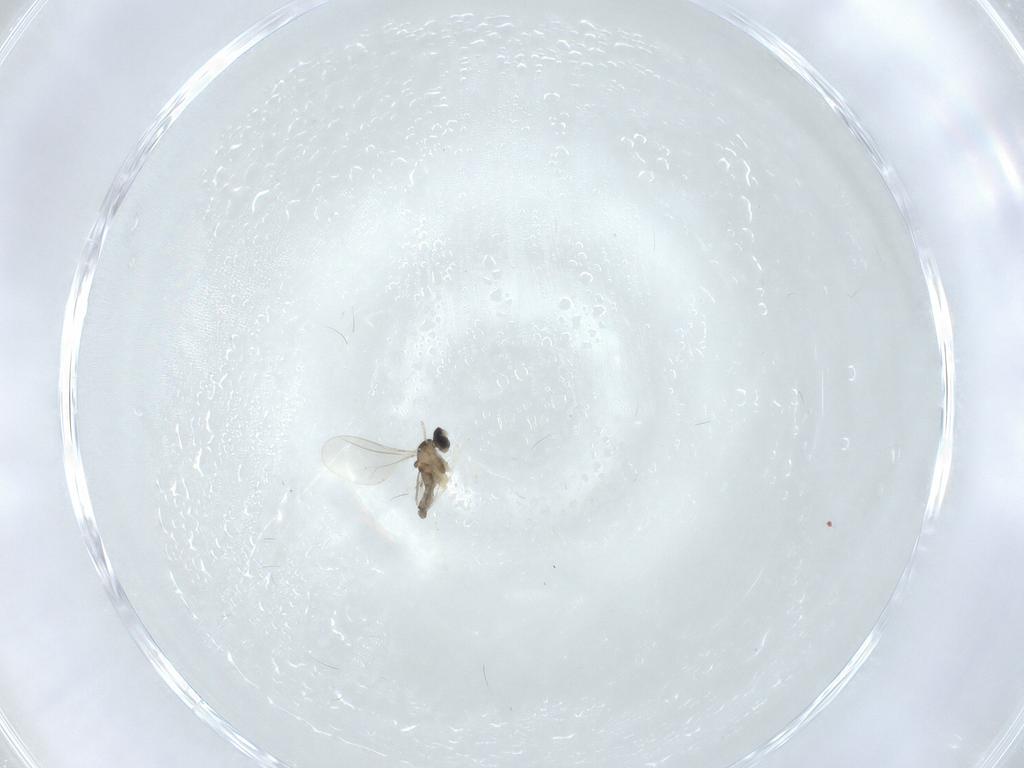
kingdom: Animalia
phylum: Arthropoda
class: Insecta
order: Diptera
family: Cecidomyiidae
